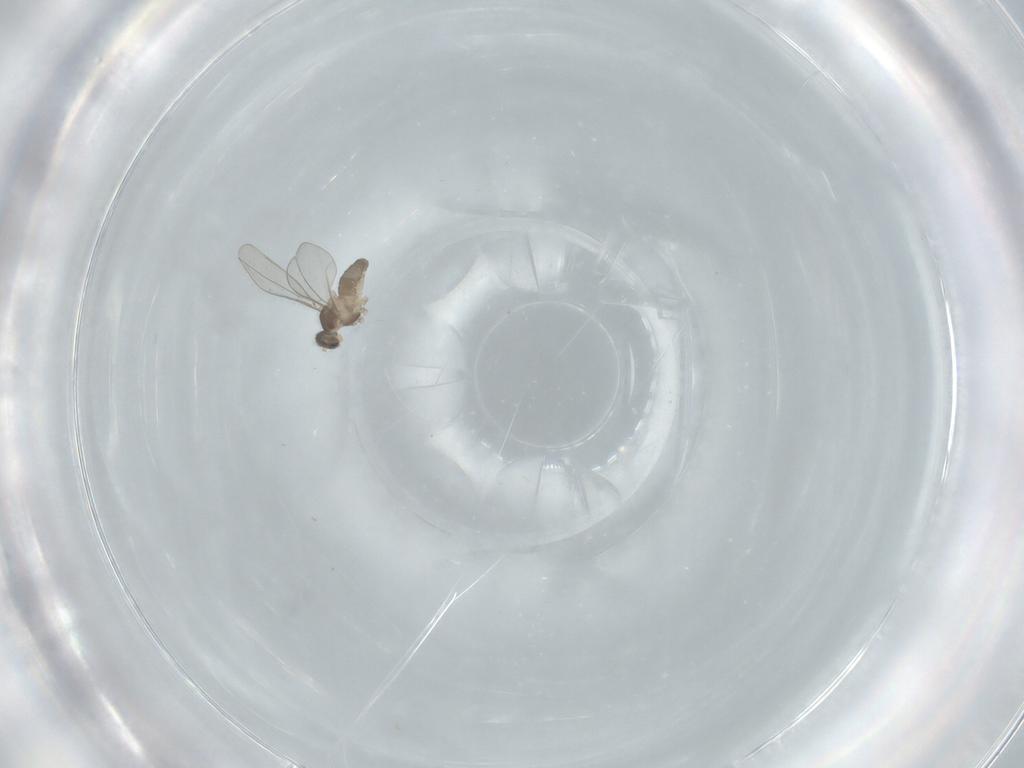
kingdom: Animalia
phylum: Arthropoda
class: Insecta
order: Diptera
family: Cecidomyiidae
